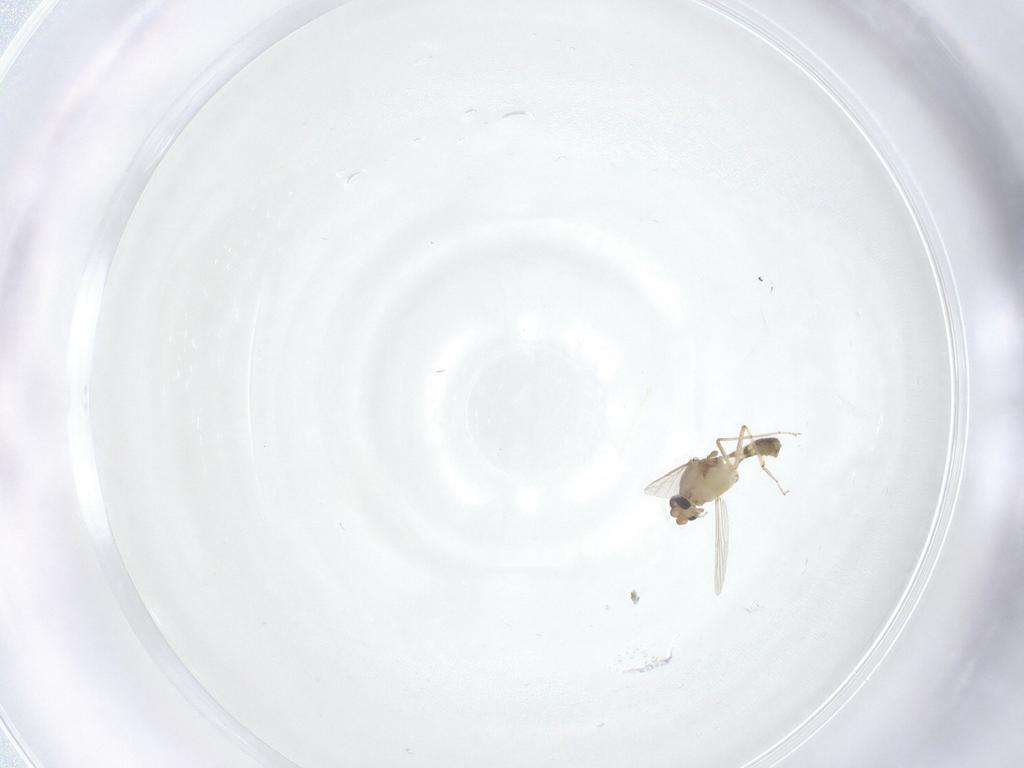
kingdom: Animalia
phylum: Arthropoda
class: Insecta
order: Diptera
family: Ceratopogonidae
